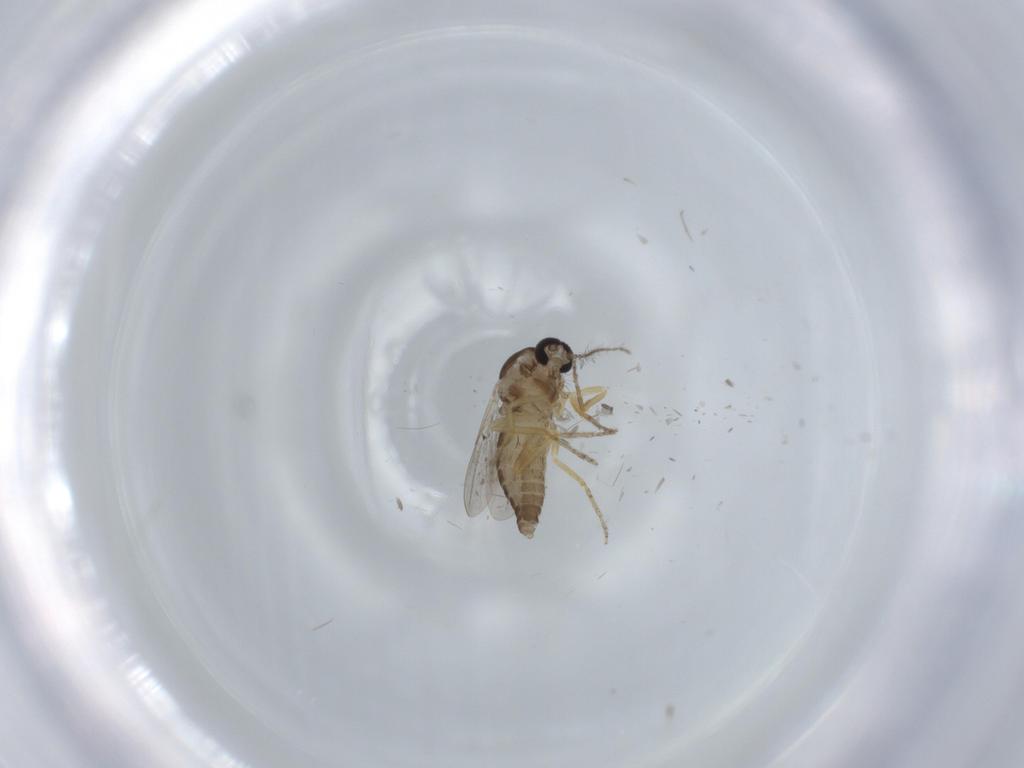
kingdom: Animalia
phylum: Arthropoda
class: Insecta
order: Diptera
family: Ceratopogonidae
